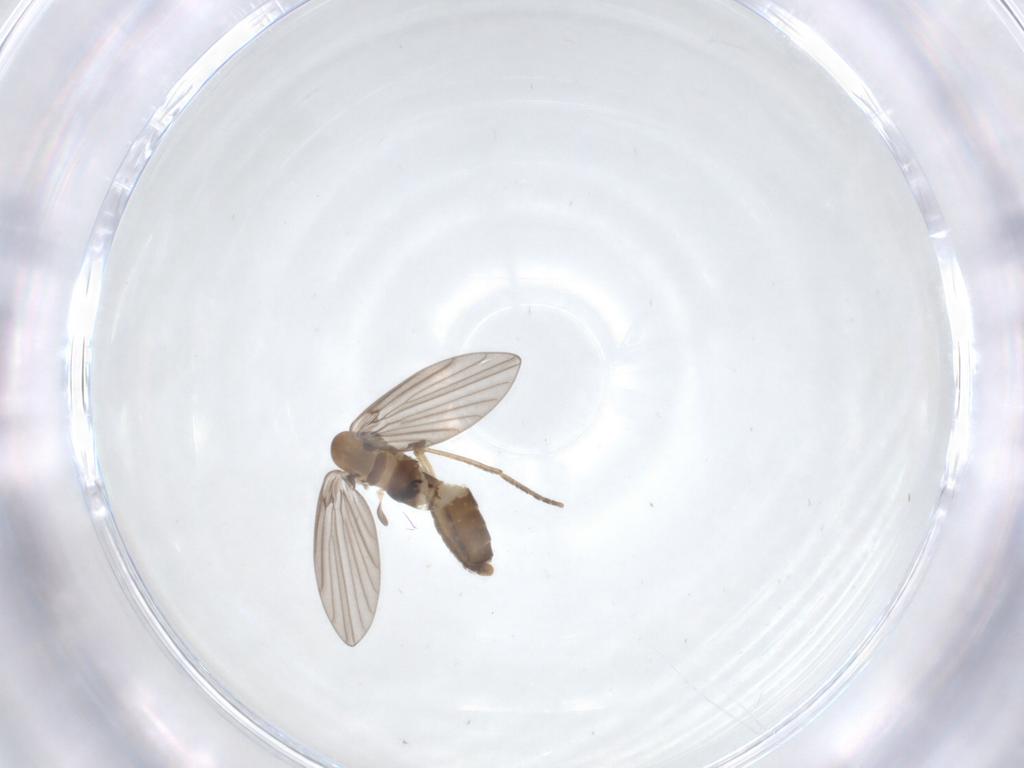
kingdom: Animalia
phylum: Arthropoda
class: Insecta
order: Diptera
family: Psychodidae
